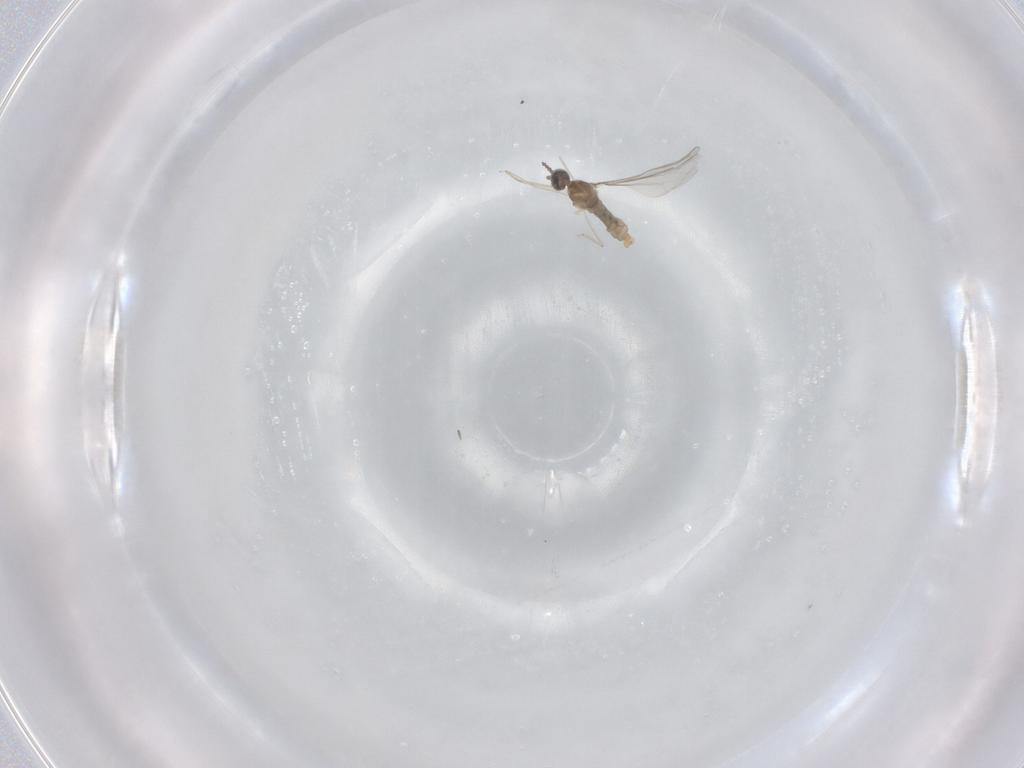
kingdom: Animalia
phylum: Arthropoda
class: Insecta
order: Diptera
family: Cecidomyiidae
